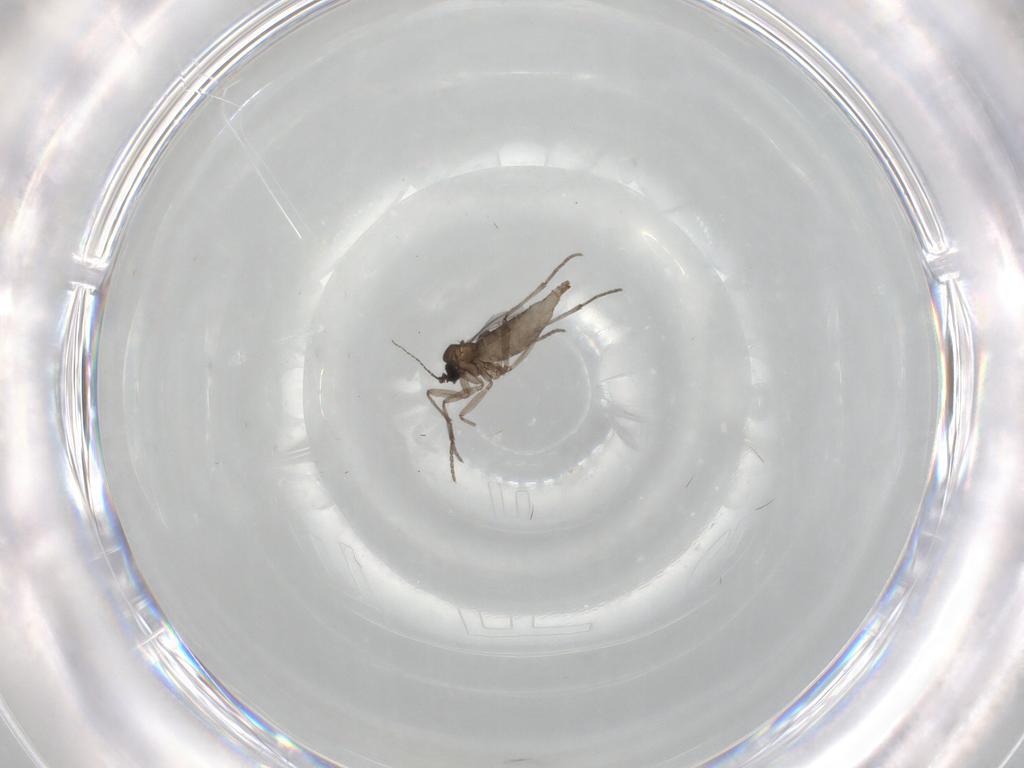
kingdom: Animalia
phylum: Arthropoda
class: Insecta
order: Diptera
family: Sciaridae
